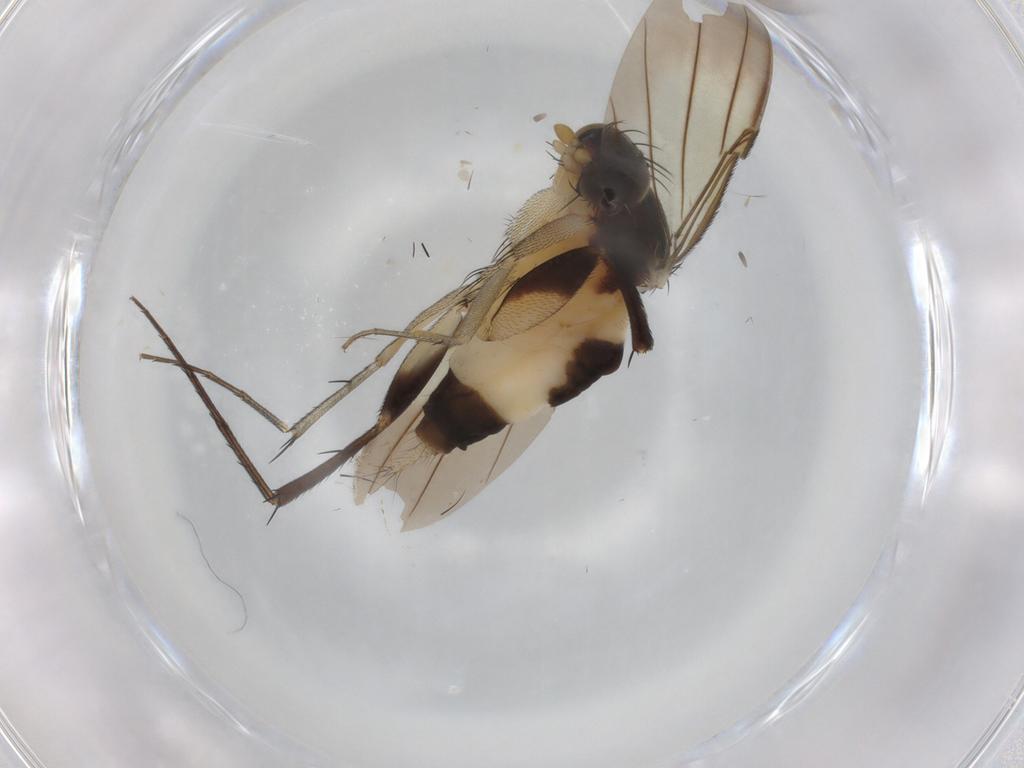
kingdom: Animalia
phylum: Arthropoda
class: Insecta
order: Diptera
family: Phoridae
